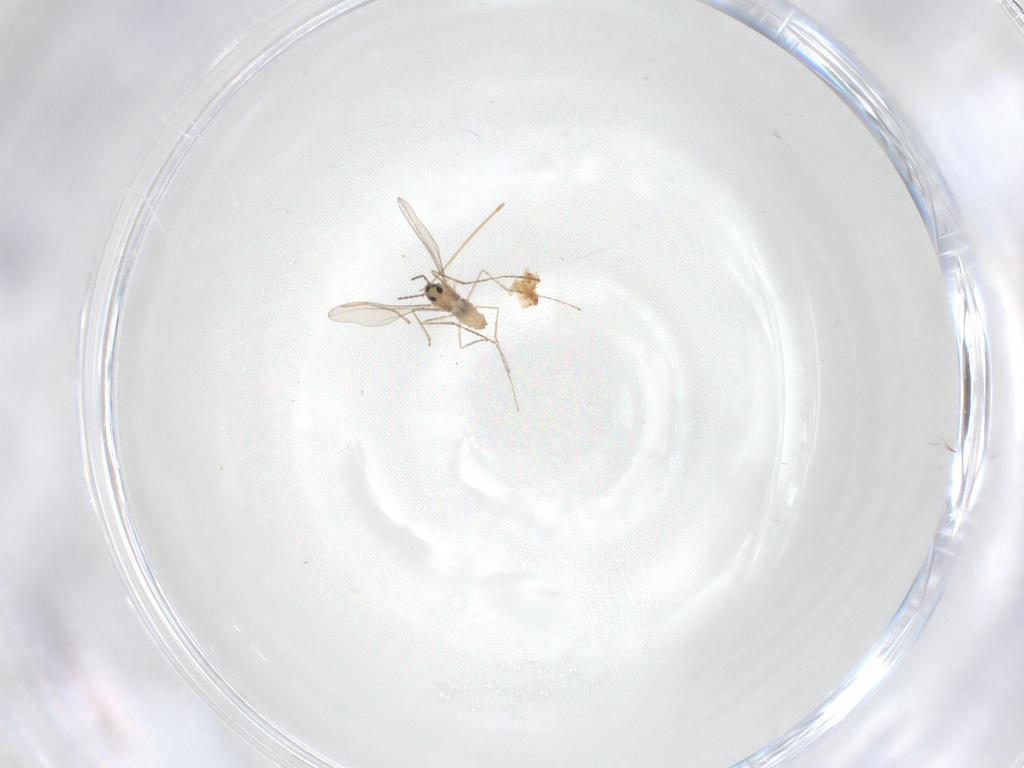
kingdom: Animalia
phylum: Arthropoda
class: Insecta
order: Diptera
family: Cecidomyiidae
